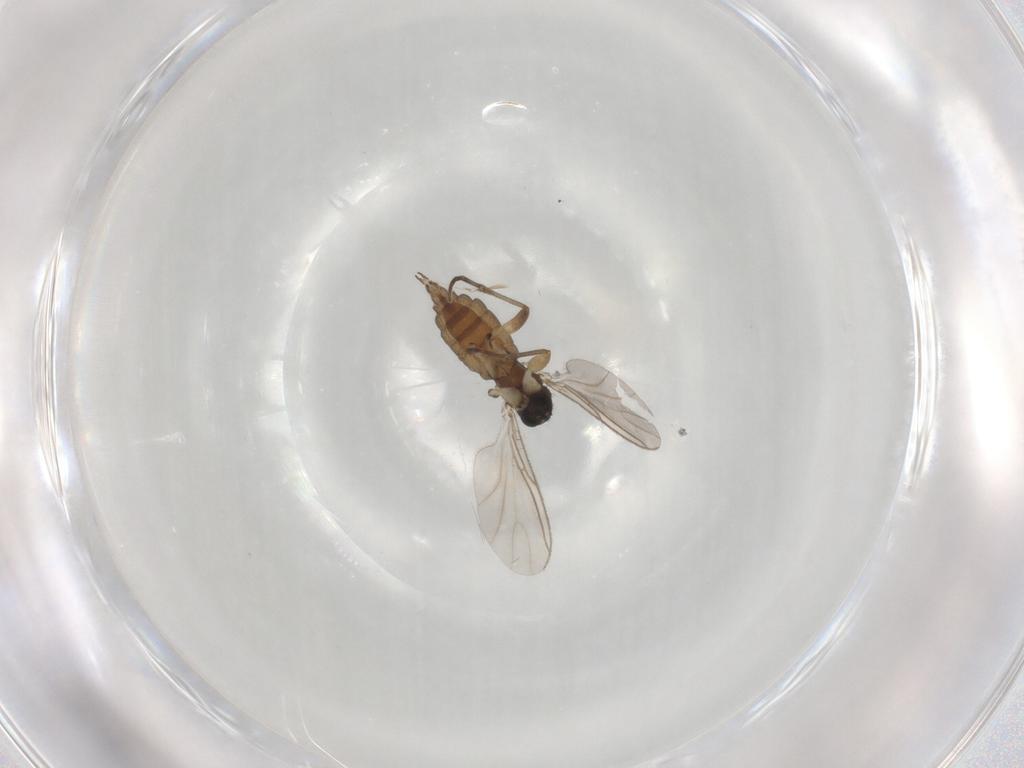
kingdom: Animalia
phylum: Arthropoda
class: Insecta
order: Diptera
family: Sciaridae
